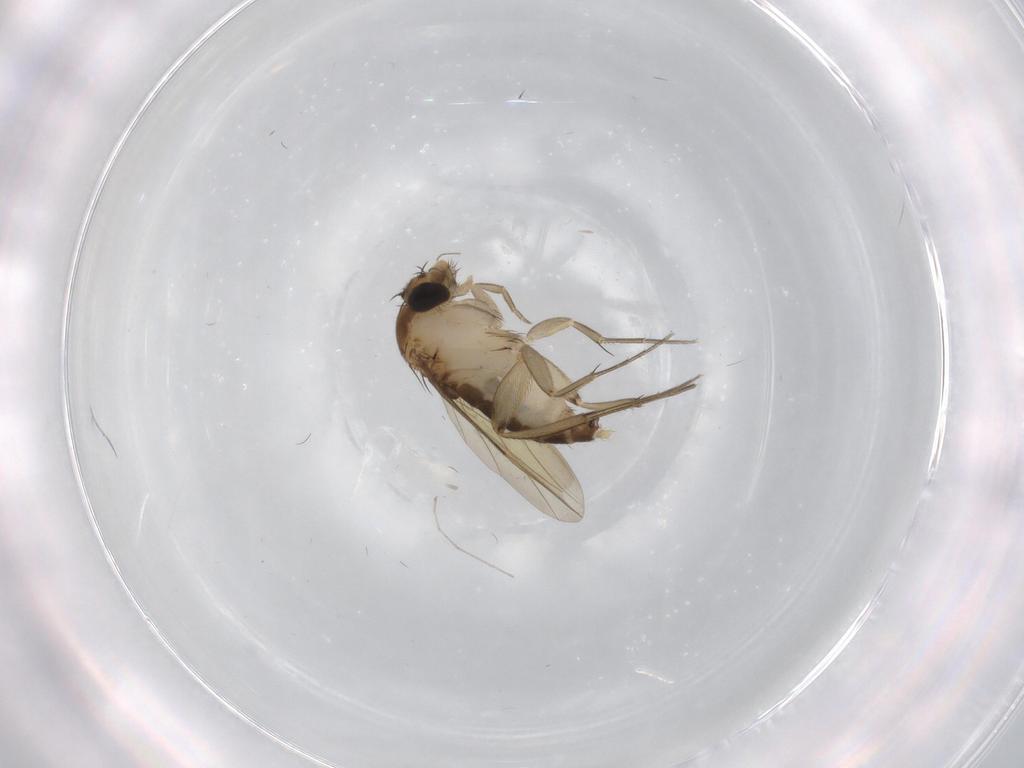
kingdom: Animalia
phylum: Arthropoda
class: Insecta
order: Diptera
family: Phoridae
